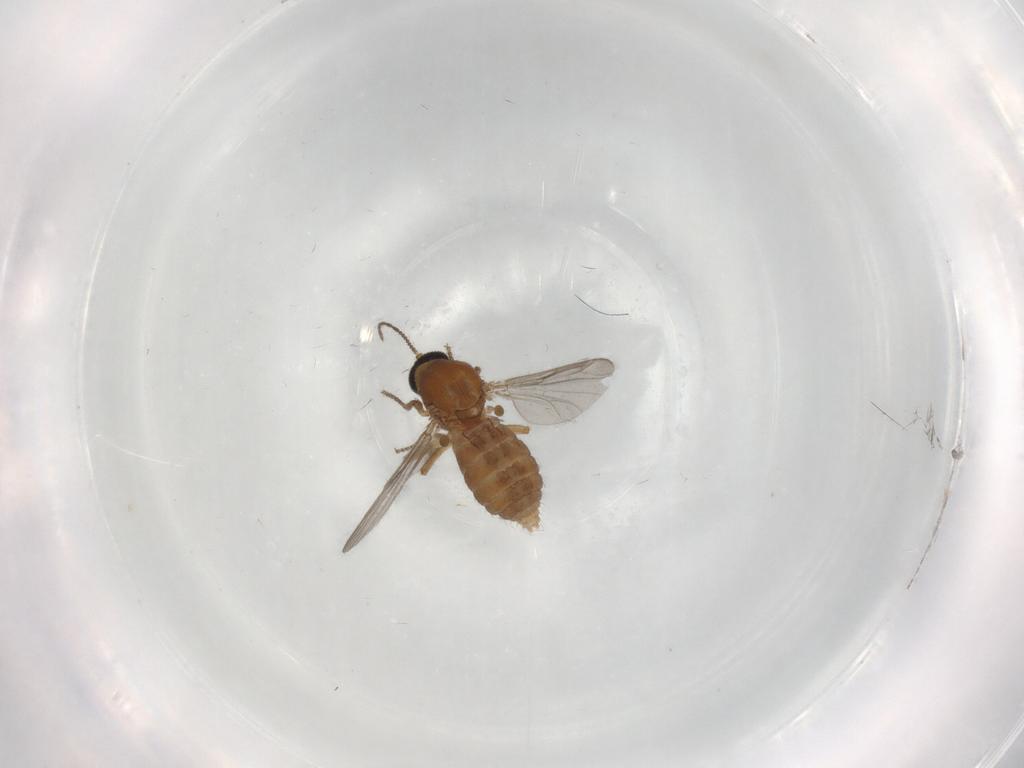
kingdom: Animalia
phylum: Arthropoda
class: Insecta
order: Diptera
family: Ceratopogonidae
